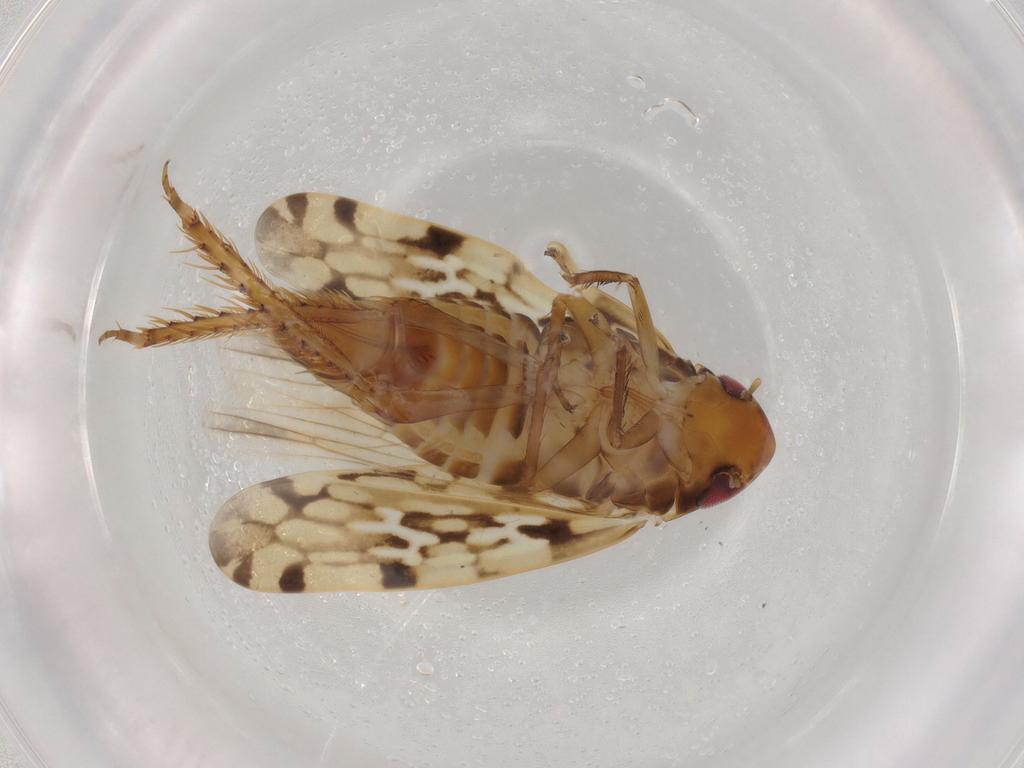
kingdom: Animalia
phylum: Arthropoda
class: Insecta
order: Hemiptera
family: Cicadellidae
